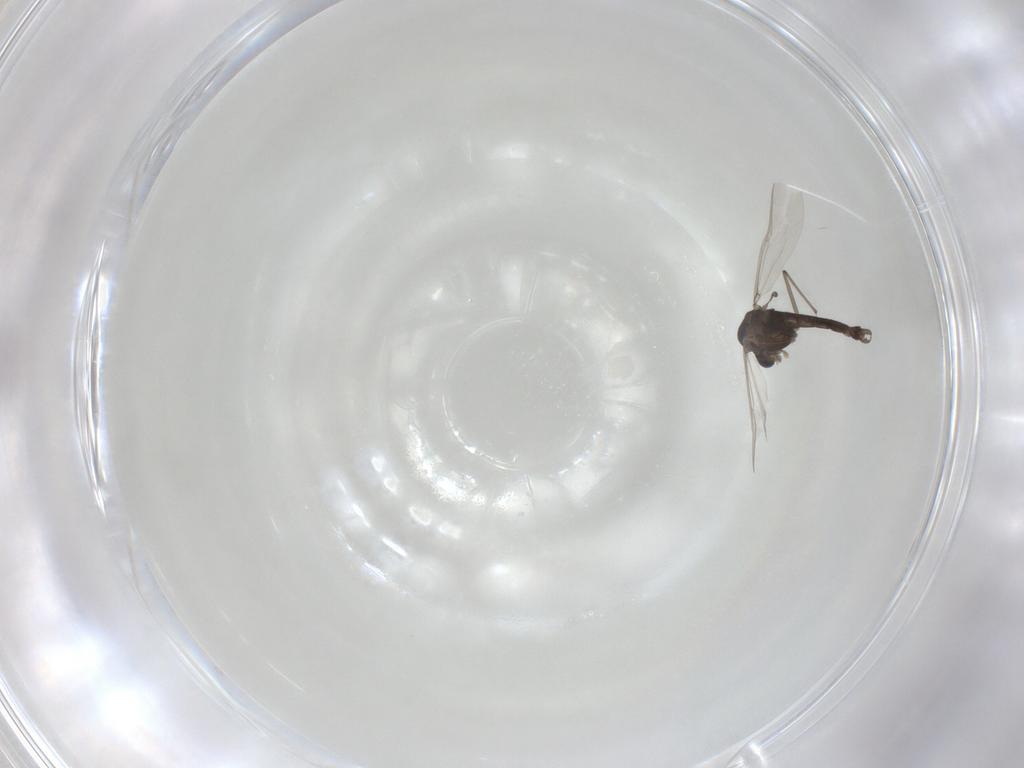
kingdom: Animalia
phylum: Arthropoda
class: Insecta
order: Diptera
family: Chironomidae
